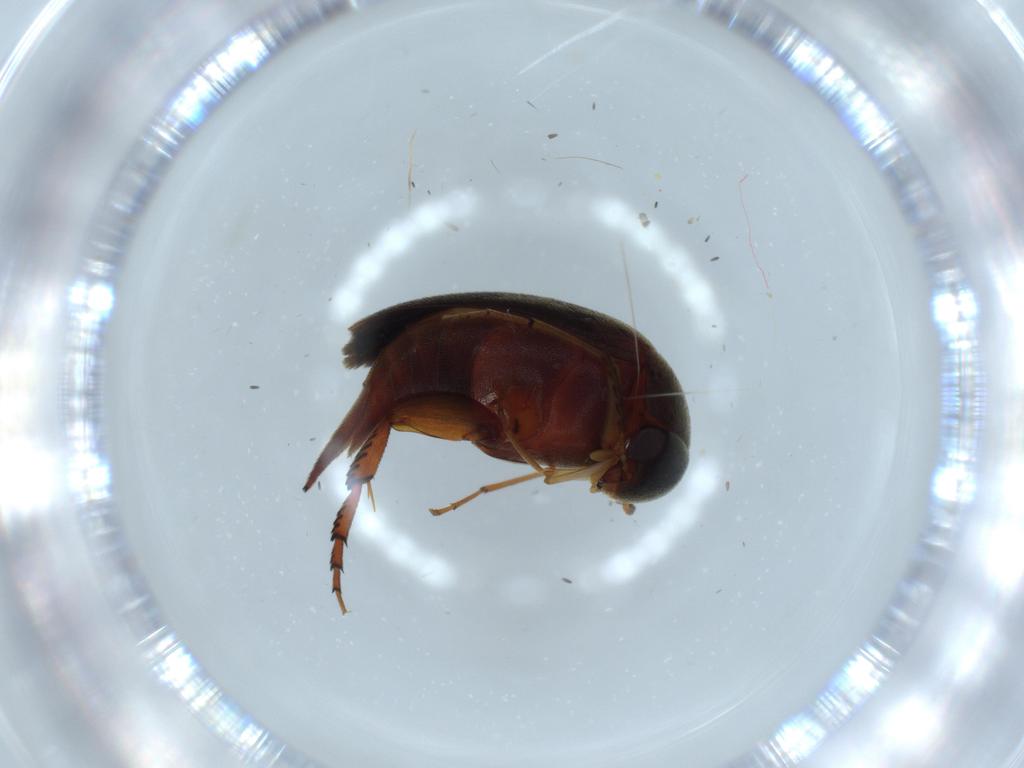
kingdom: Animalia
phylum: Arthropoda
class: Insecta
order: Coleoptera
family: Mordellidae
